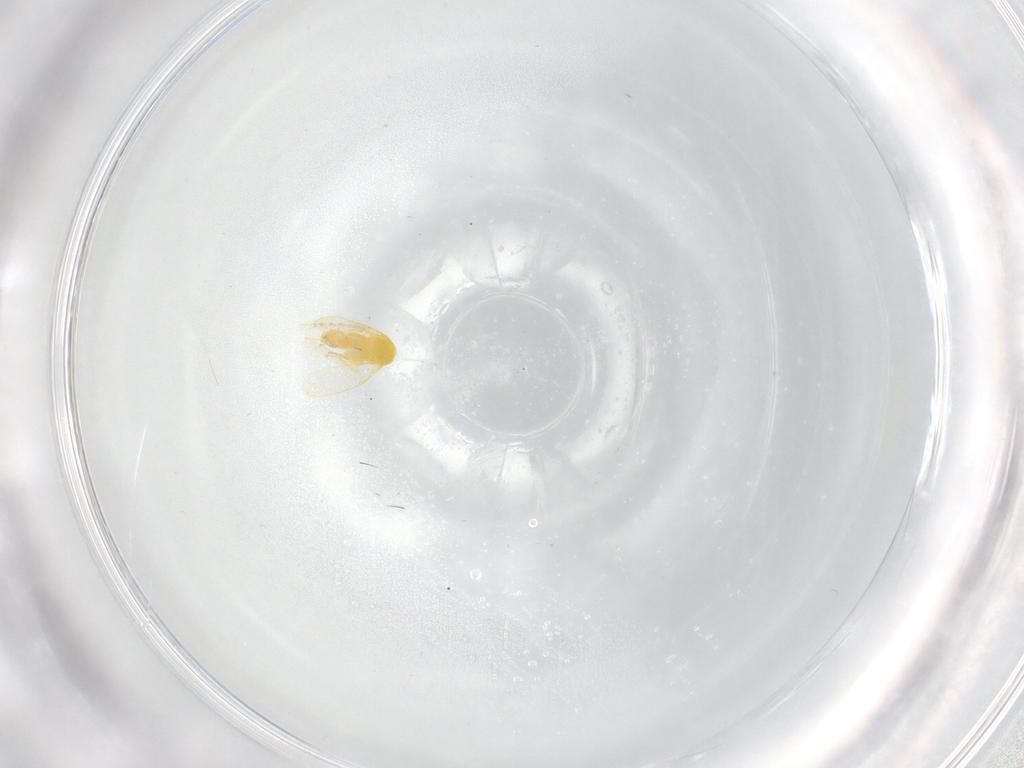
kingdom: Animalia
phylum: Arthropoda
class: Insecta
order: Hemiptera
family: Aleyrodidae
